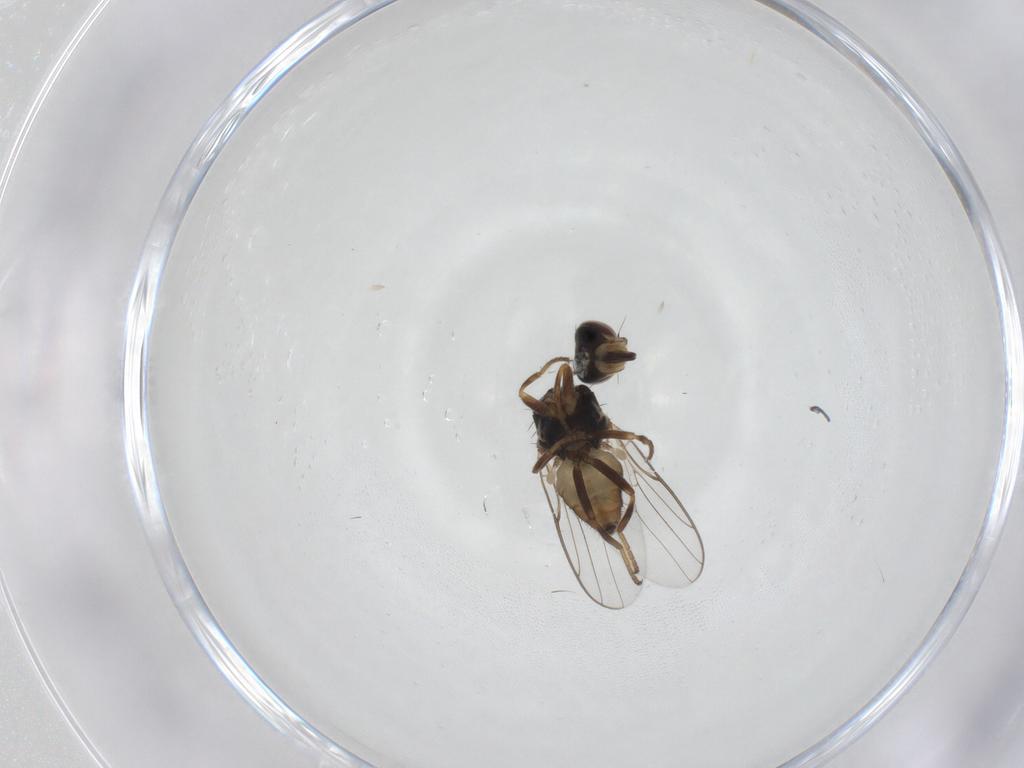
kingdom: Animalia
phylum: Arthropoda
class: Insecta
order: Diptera
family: Chloropidae
